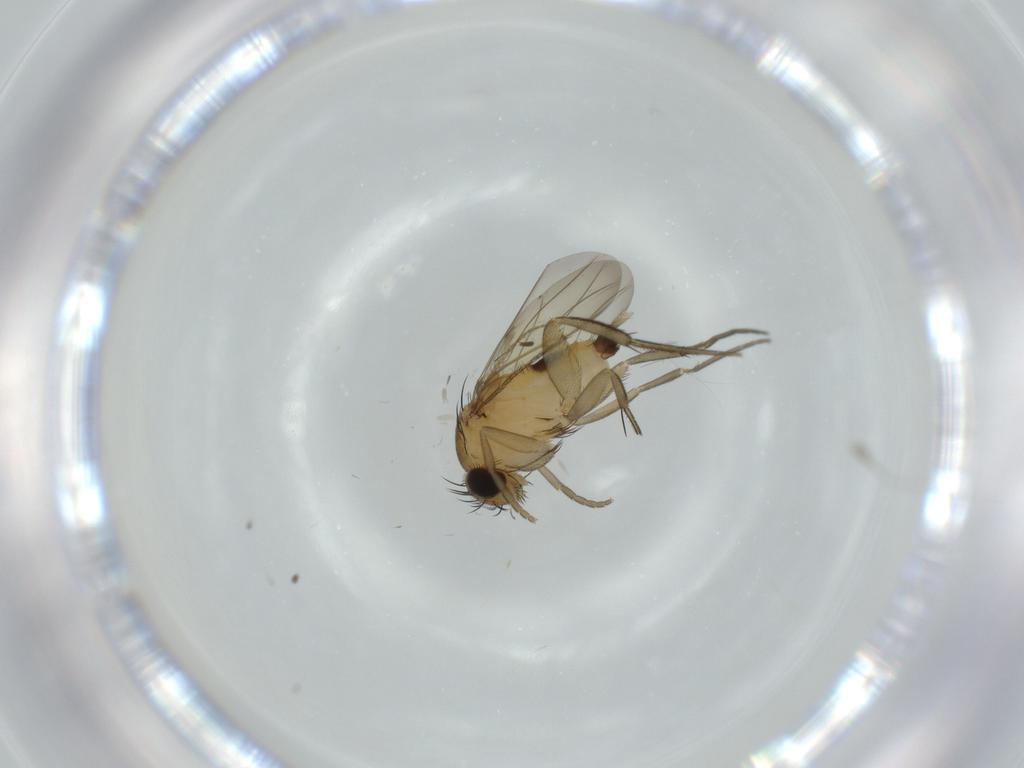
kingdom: Animalia
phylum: Arthropoda
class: Insecta
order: Diptera
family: Phoridae
